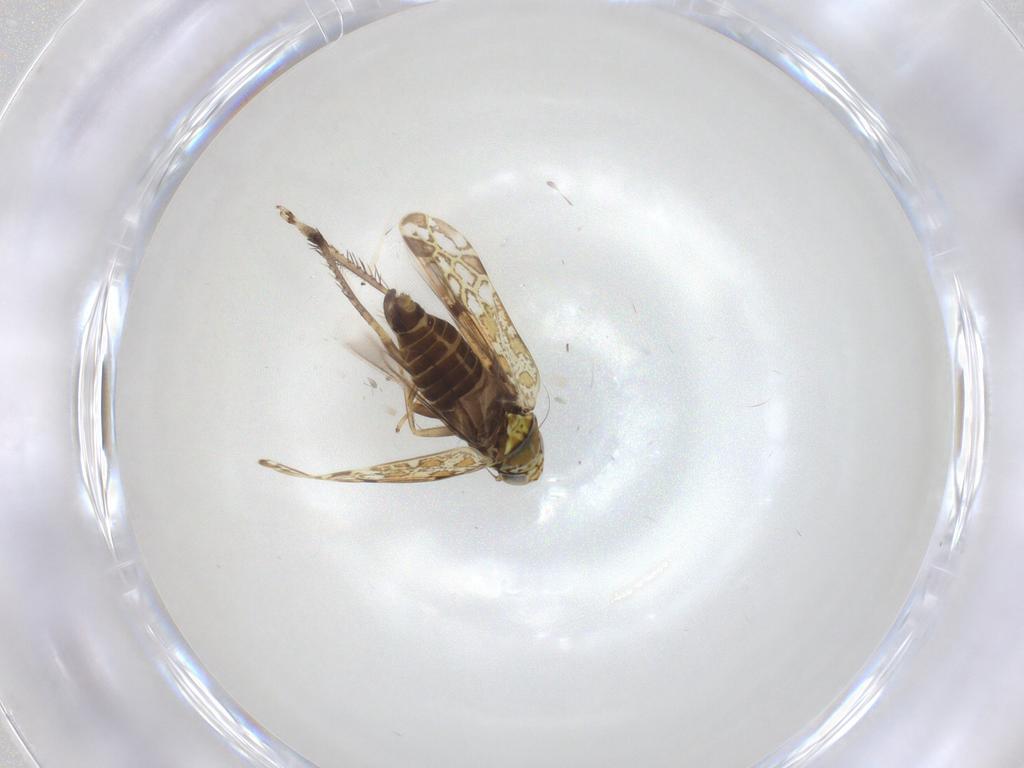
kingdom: Animalia
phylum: Arthropoda
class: Insecta
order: Hemiptera
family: Cicadellidae
